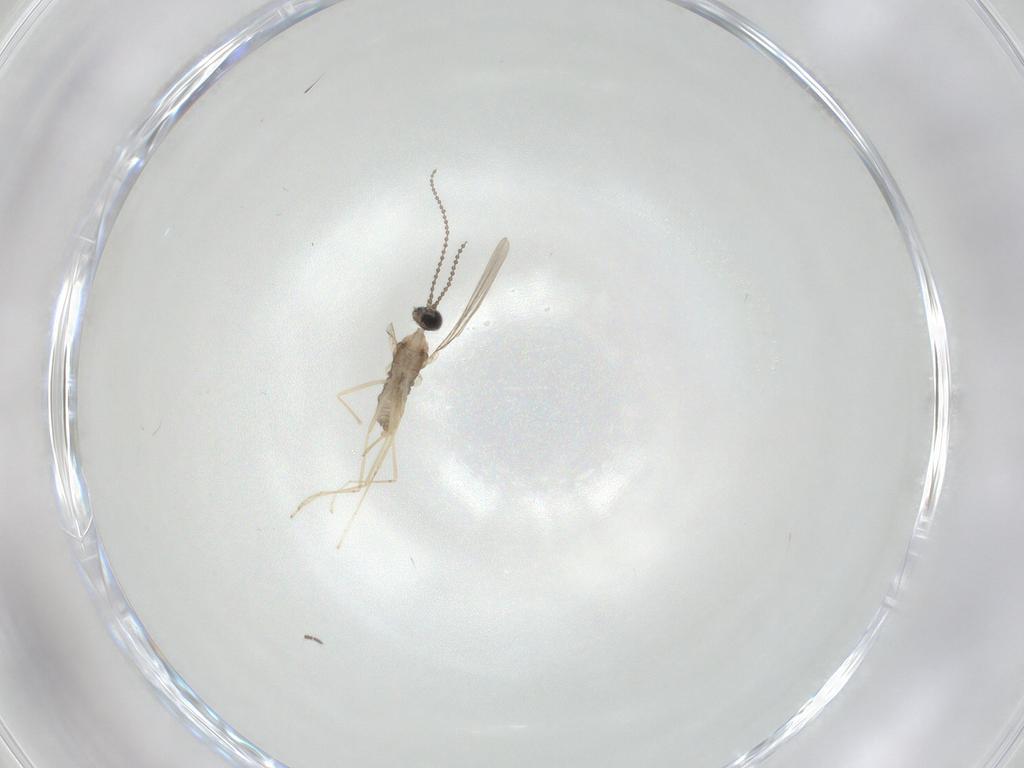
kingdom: Animalia
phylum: Arthropoda
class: Insecta
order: Diptera
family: Cecidomyiidae
